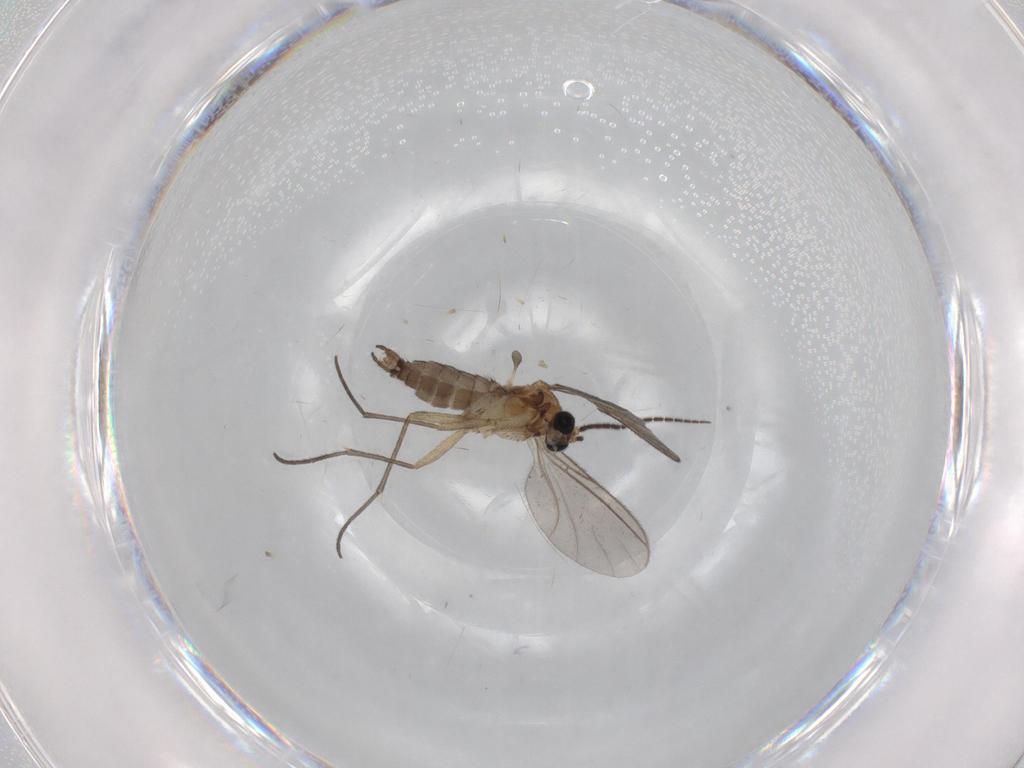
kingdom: Animalia
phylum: Arthropoda
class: Insecta
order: Diptera
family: Sciaridae
